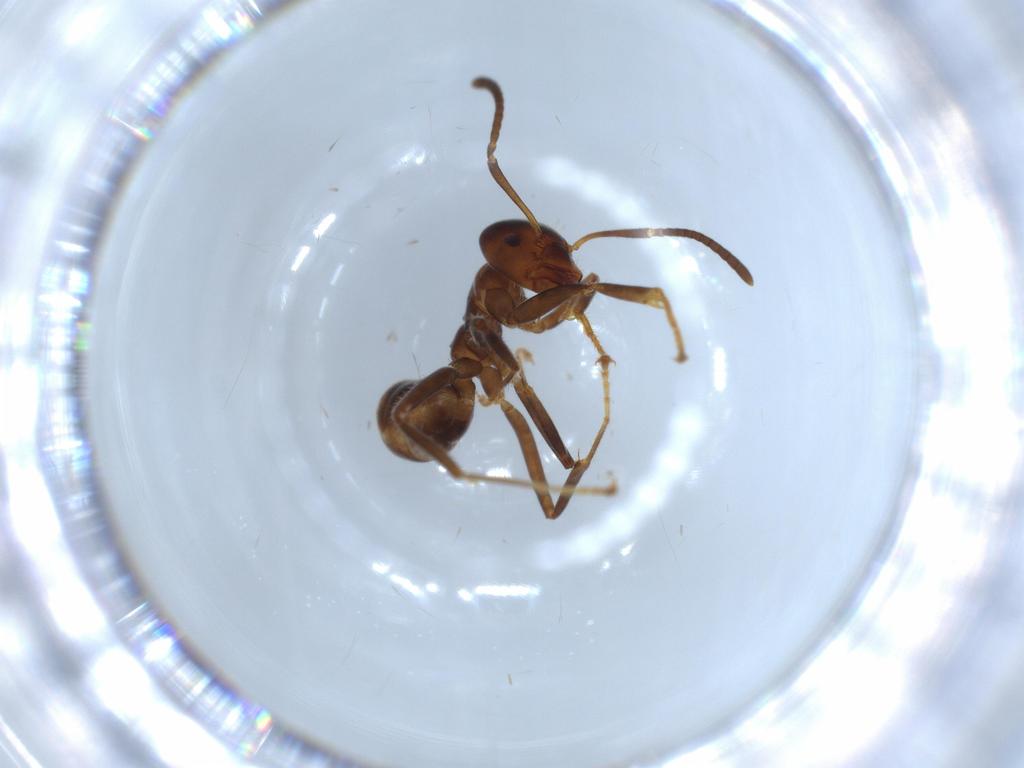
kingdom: Animalia
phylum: Arthropoda
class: Insecta
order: Hymenoptera
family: Formicidae
